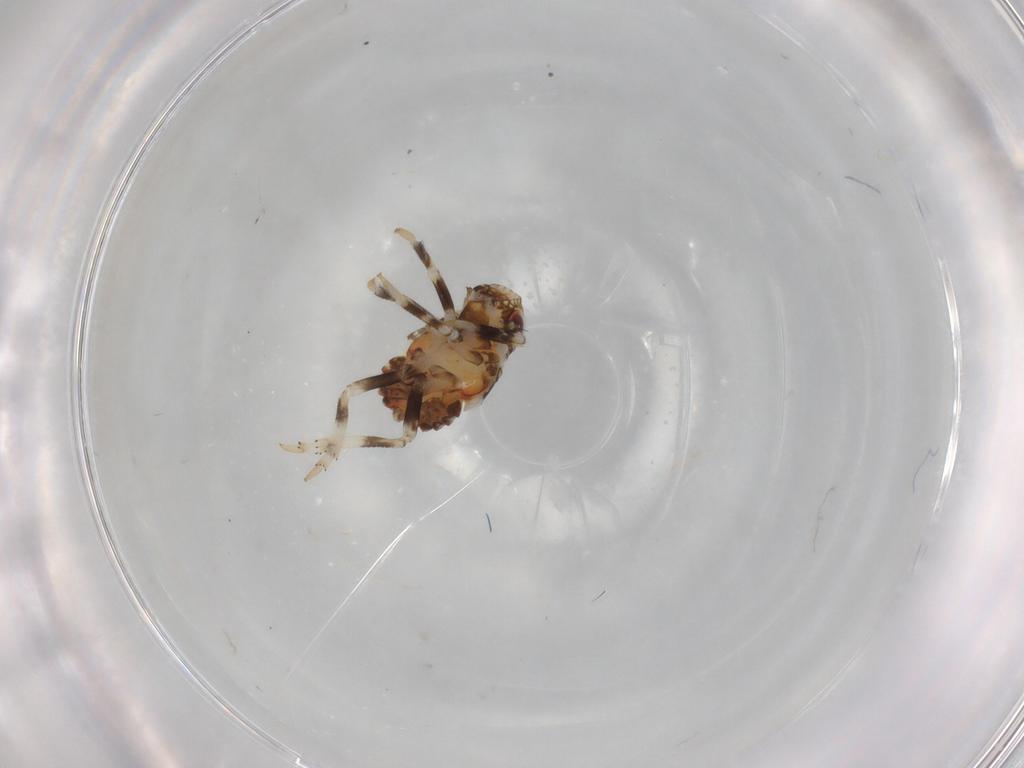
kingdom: Animalia
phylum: Arthropoda
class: Insecta
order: Hemiptera
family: Fulgoroidea_incertae_sedis
